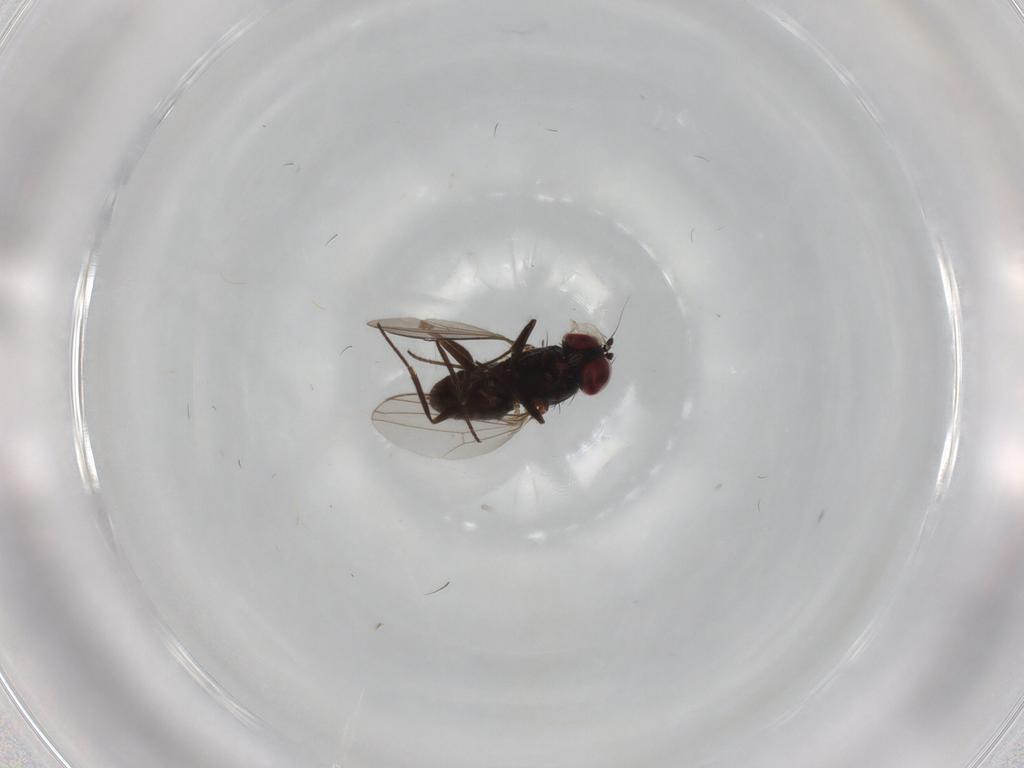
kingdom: Animalia
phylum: Arthropoda
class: Insecta
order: Diptera
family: Dolichopodidae
